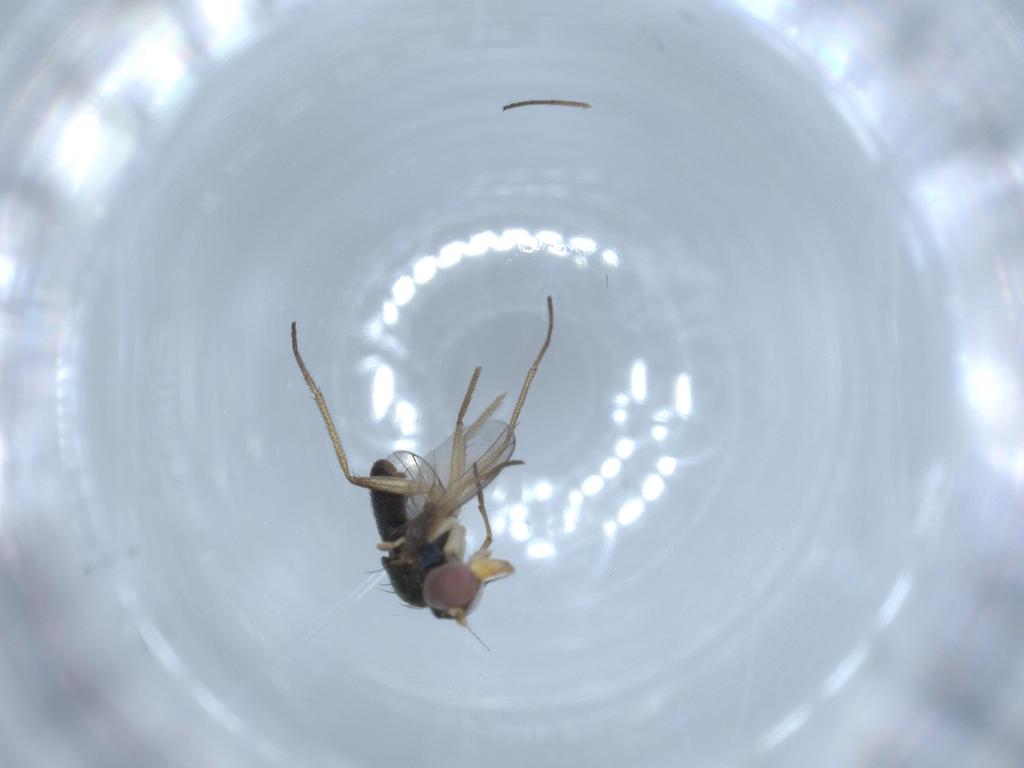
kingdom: Animalia
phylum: Arthropoda
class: Insecta
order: Diptera
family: Dolichopodidae
